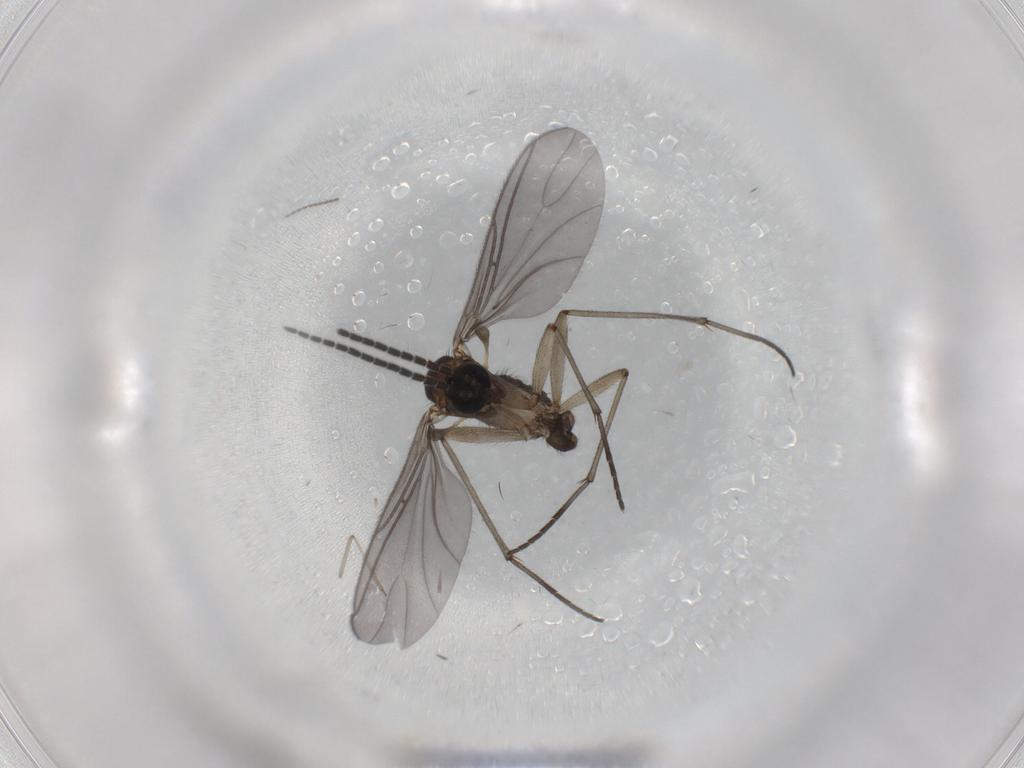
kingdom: Animalia
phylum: Arthropoda
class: Insecta
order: Diptera
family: Sciaridae
